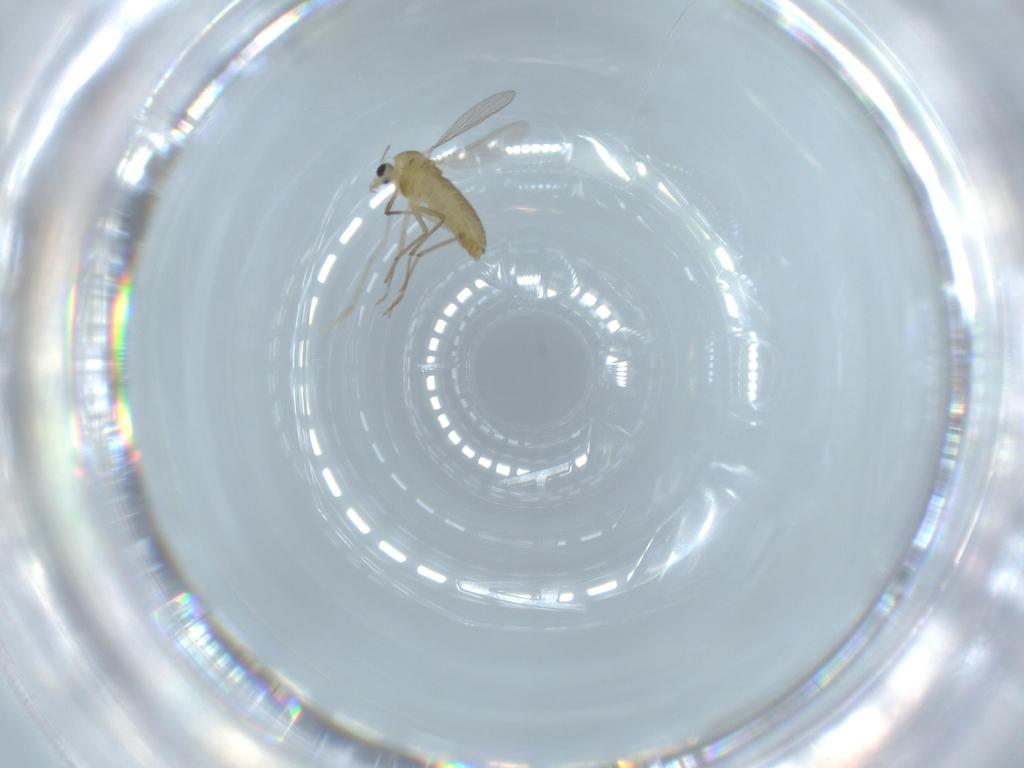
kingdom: Animalia
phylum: Arthropoda
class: Insecta
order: Diptera
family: Chironomidae
